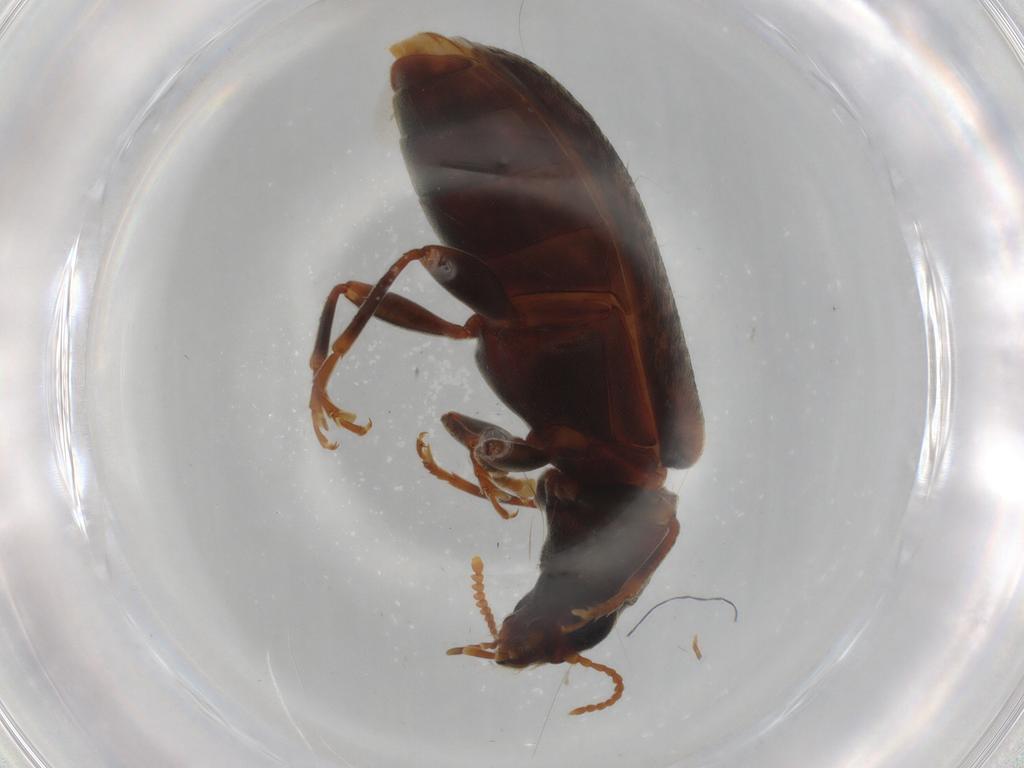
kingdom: Animalia
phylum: Arthropoda
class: Insecta
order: Coleoptera
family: Mycteridae
